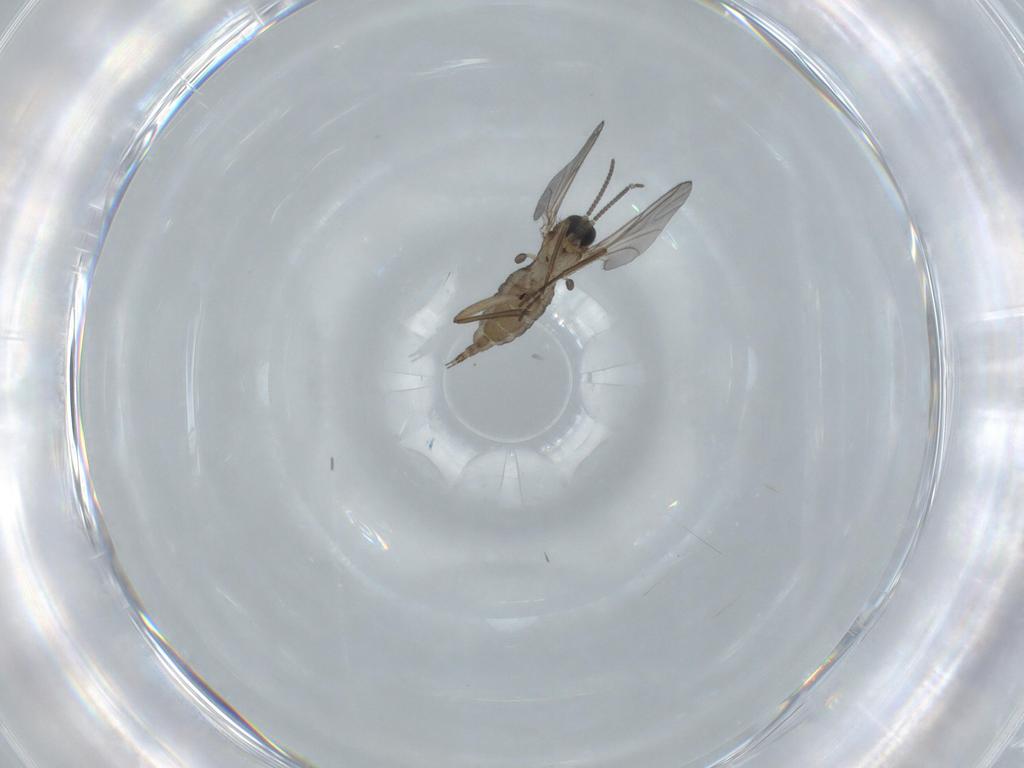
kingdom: Animalia
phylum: Arthropoda
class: Insecta
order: Diptera
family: Sciaridae
